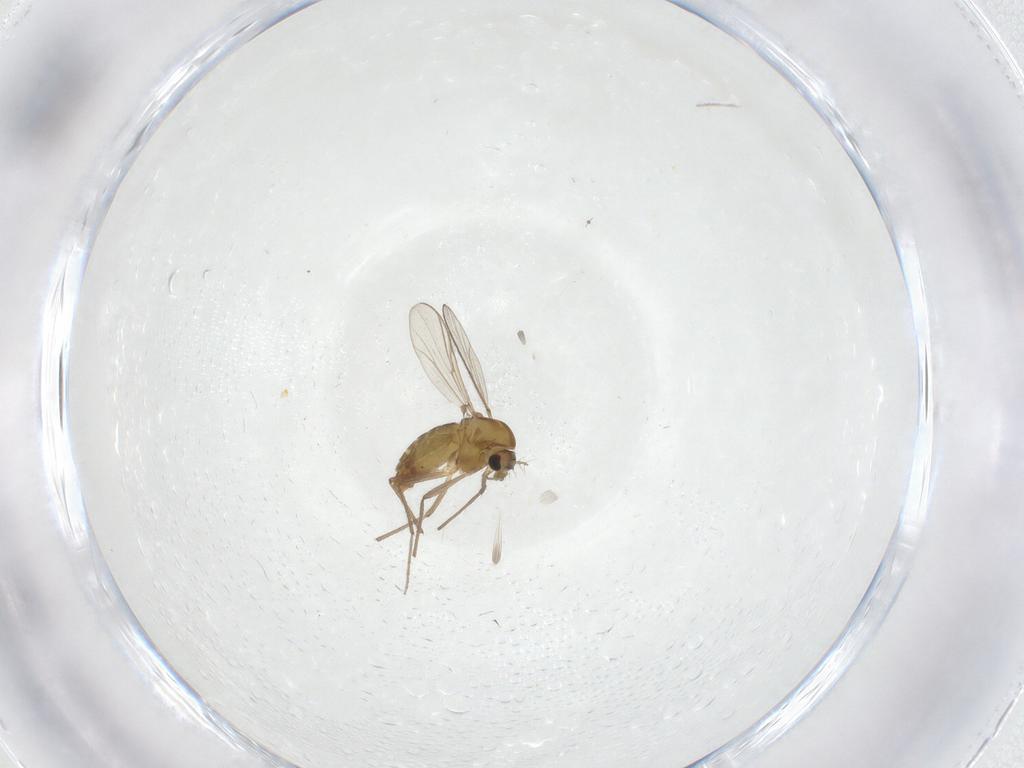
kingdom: Animalia
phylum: Arthropoda
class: Insecta
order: Diptera
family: Chironomidae
